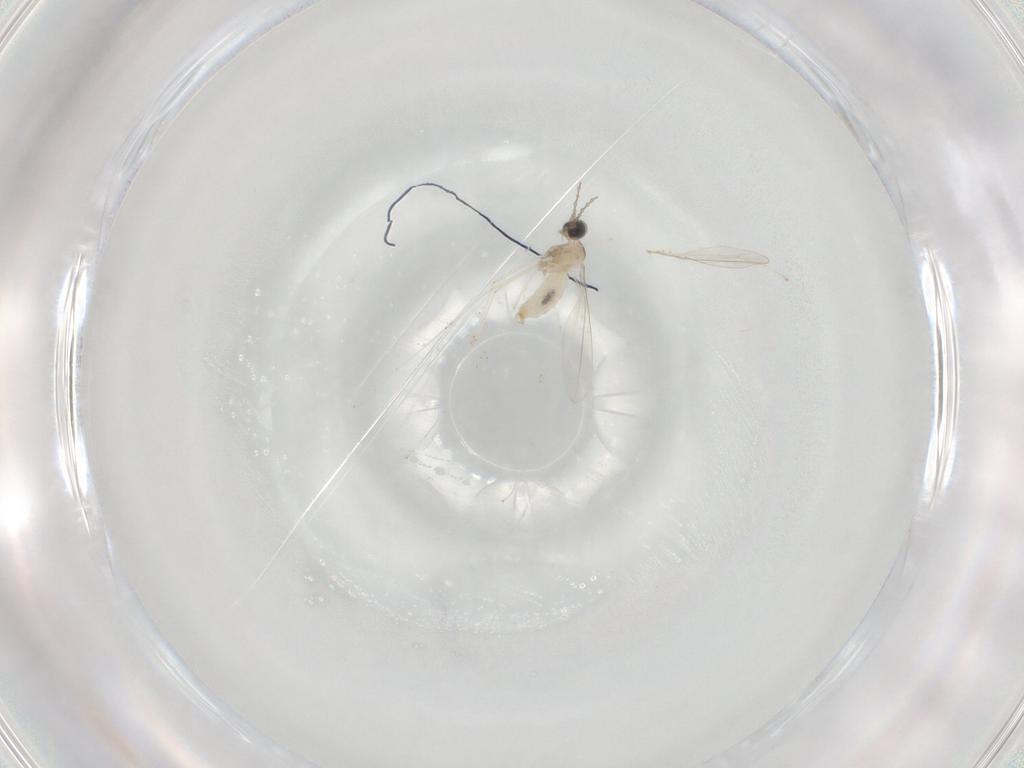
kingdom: Animalia
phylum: Arthropoda
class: Insecta
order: Diptera
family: Cecidomyiidae
